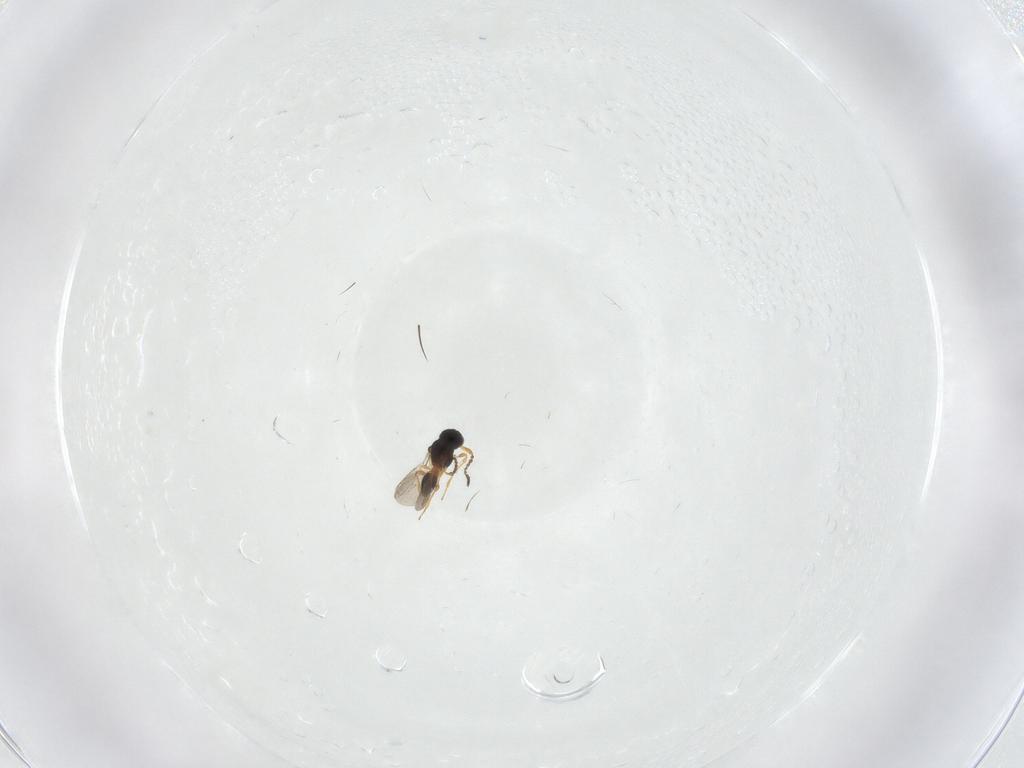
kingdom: Animalia
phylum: Arthropoda
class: Insecta
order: Hymenoptera
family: Platygastridae
